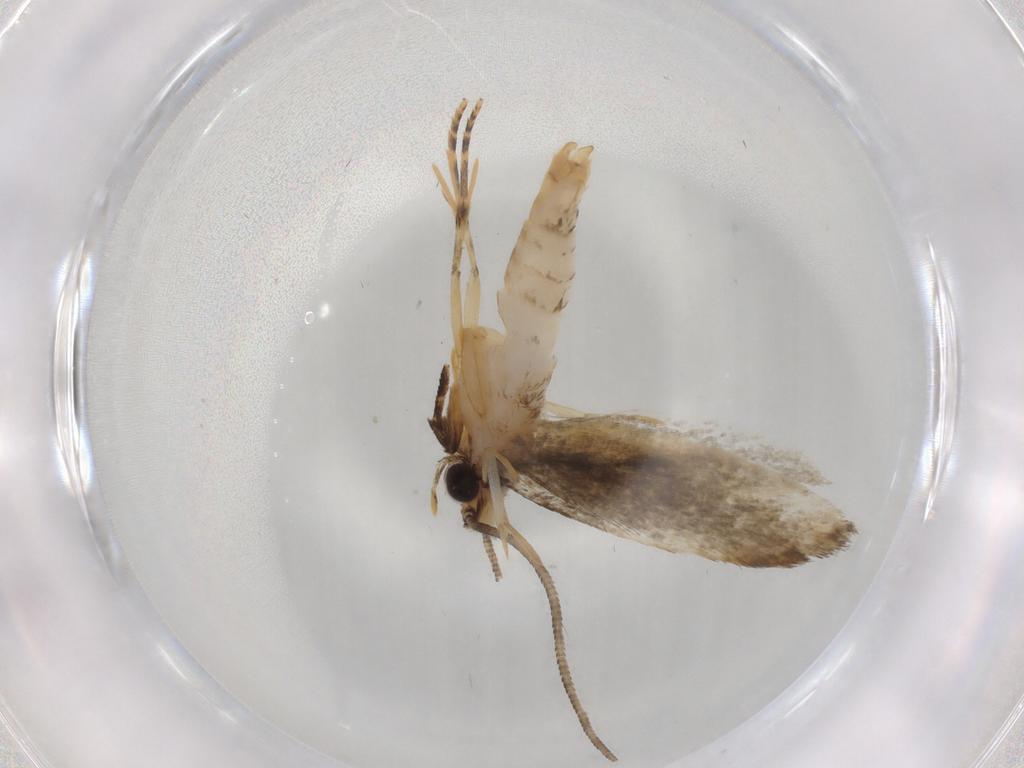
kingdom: Animalia
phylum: Arthropoda
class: Insecta
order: Lepidoptera
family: Tineidae
